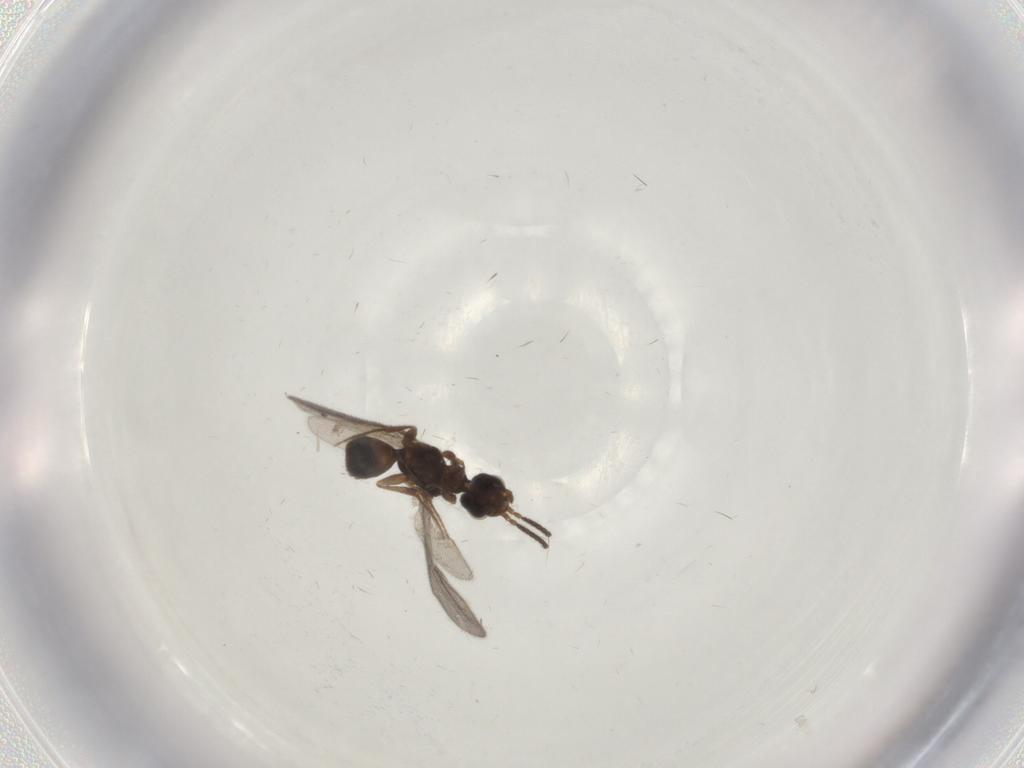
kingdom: Animalia
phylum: Arthropoda
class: Insecta
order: Hymenoptera
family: Bethylidae
